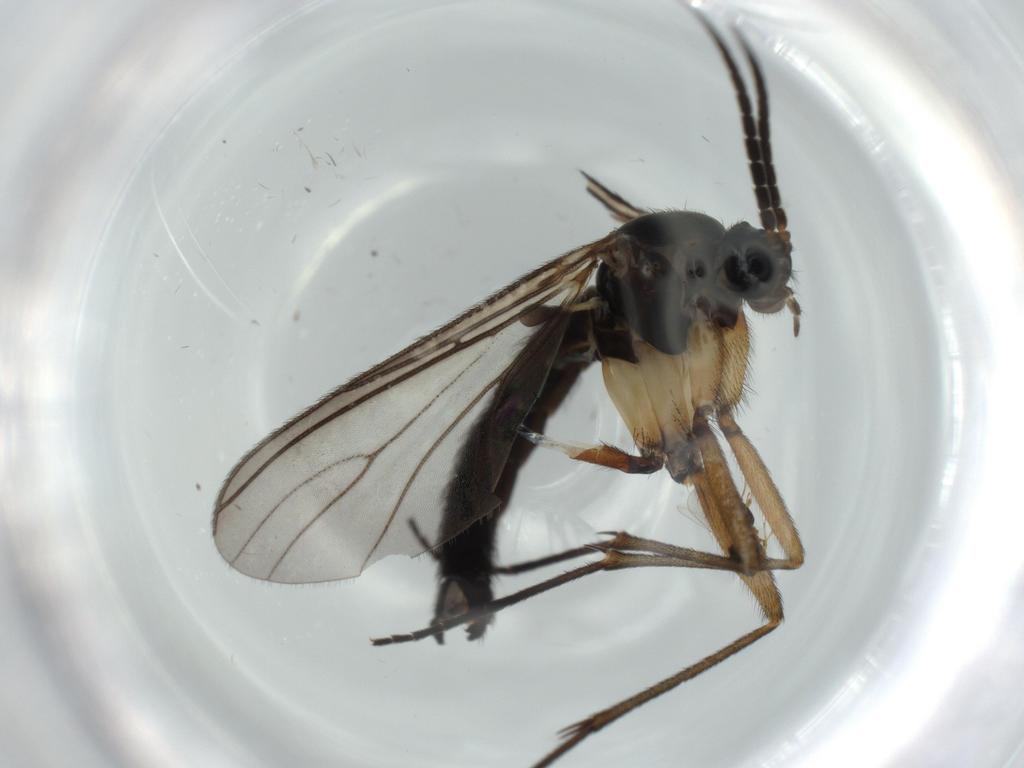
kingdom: Animalia
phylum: Arthropoda
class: Insecta
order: Diptera
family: Sciaridae
